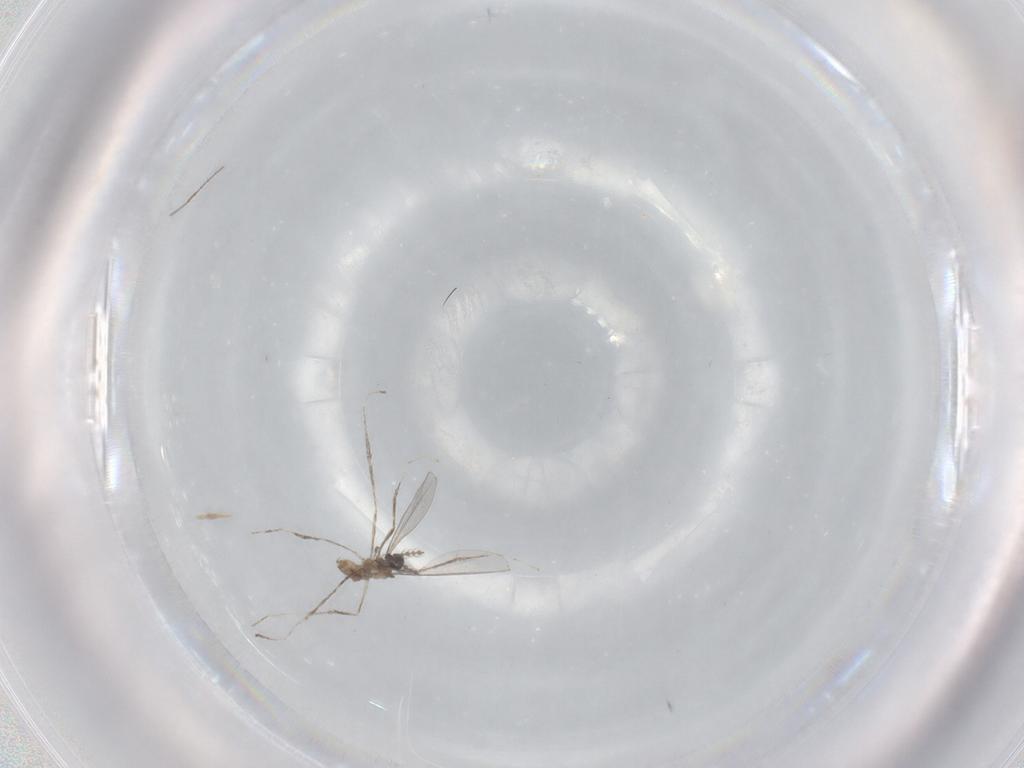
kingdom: Animalia
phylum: Arthropoda
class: Insecta
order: Diptera
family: Cecidomyiidae
